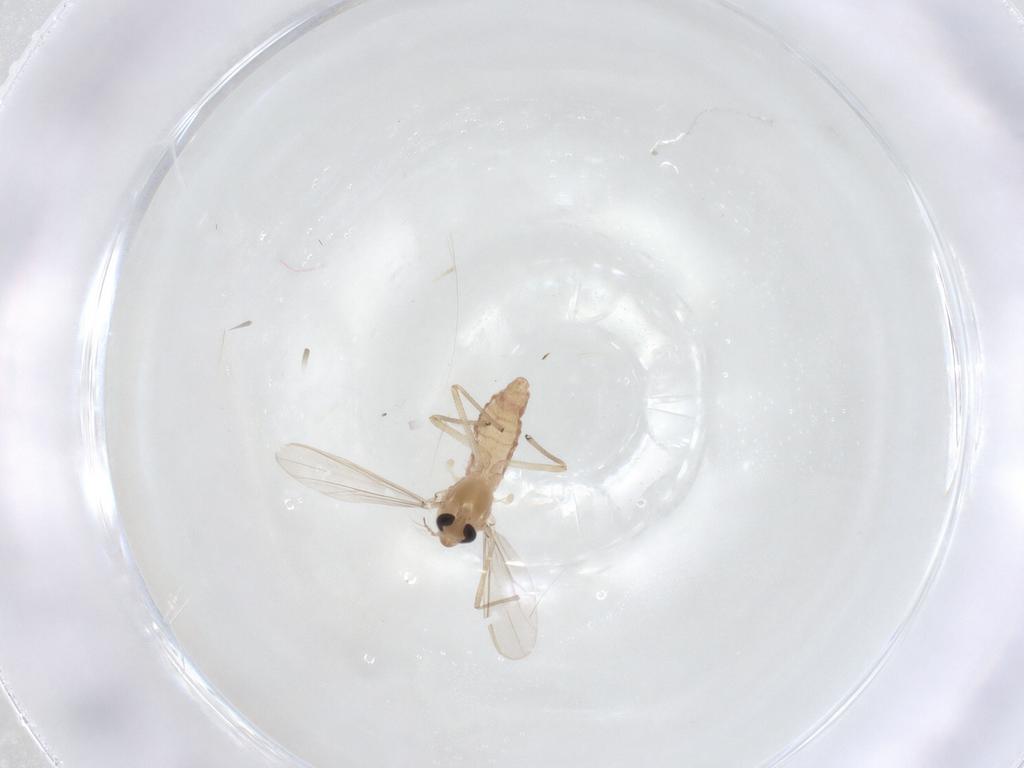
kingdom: Animalia
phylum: Arthropoda
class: Insecta
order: Diptera
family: Chironomidae
